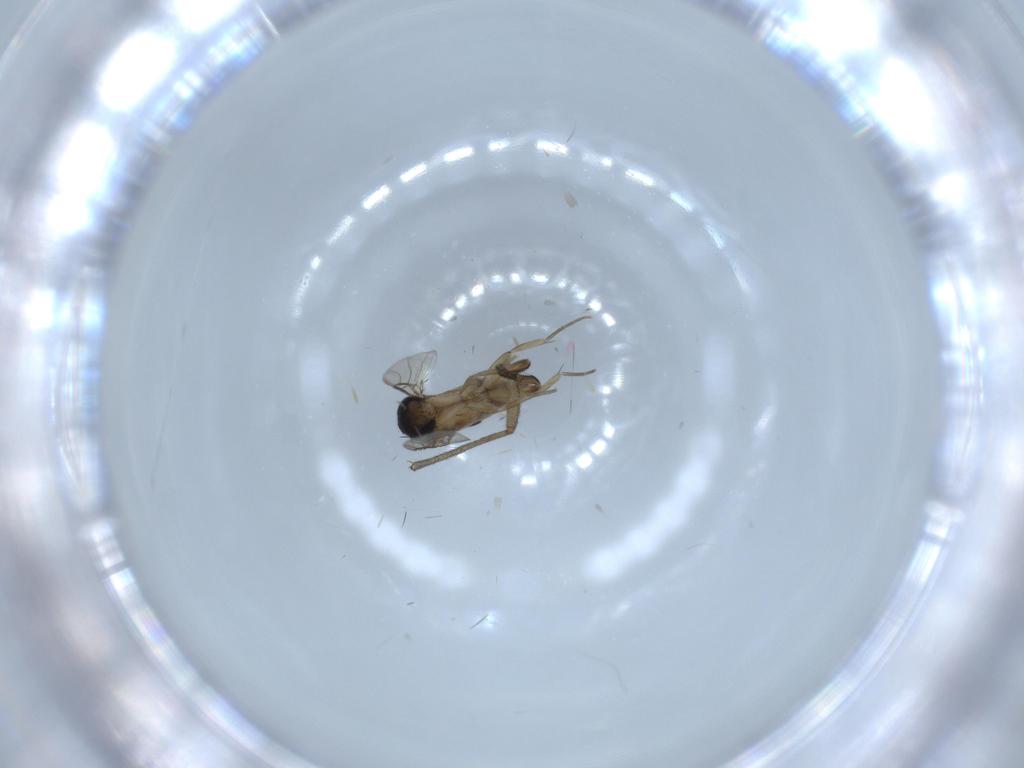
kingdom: Animalia
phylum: Arthropoda
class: Insecta
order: Diptera
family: Phoridae
